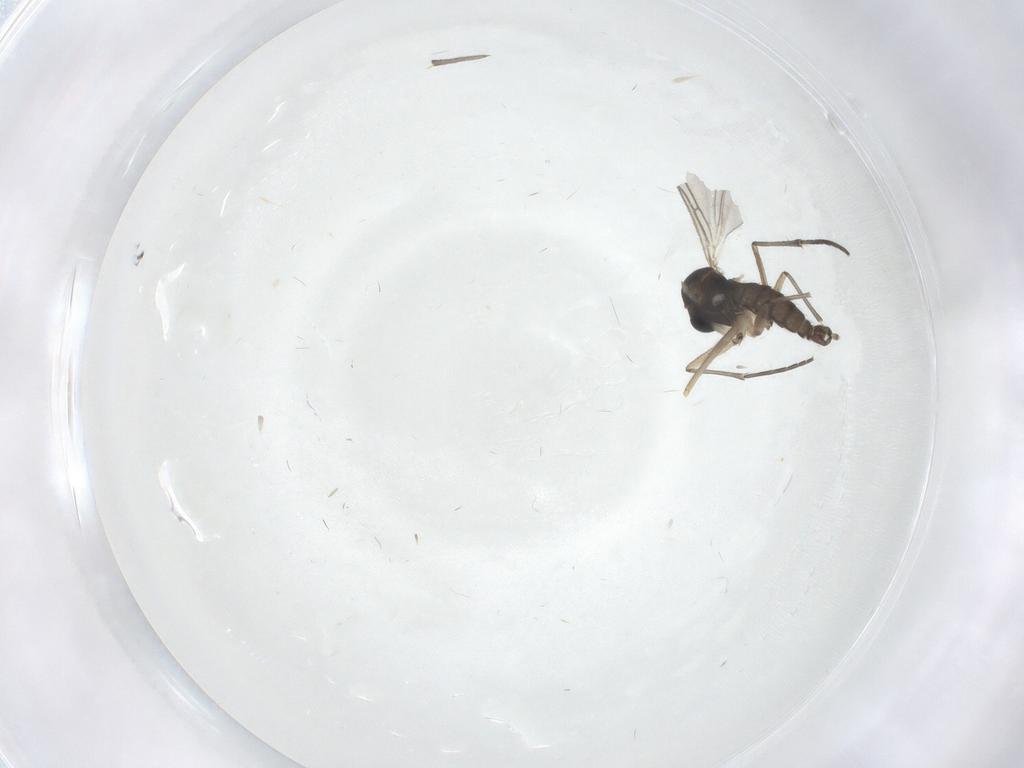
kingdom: Animalia
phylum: Arthropoda
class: Insecta
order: Diptera
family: Sciaridae
